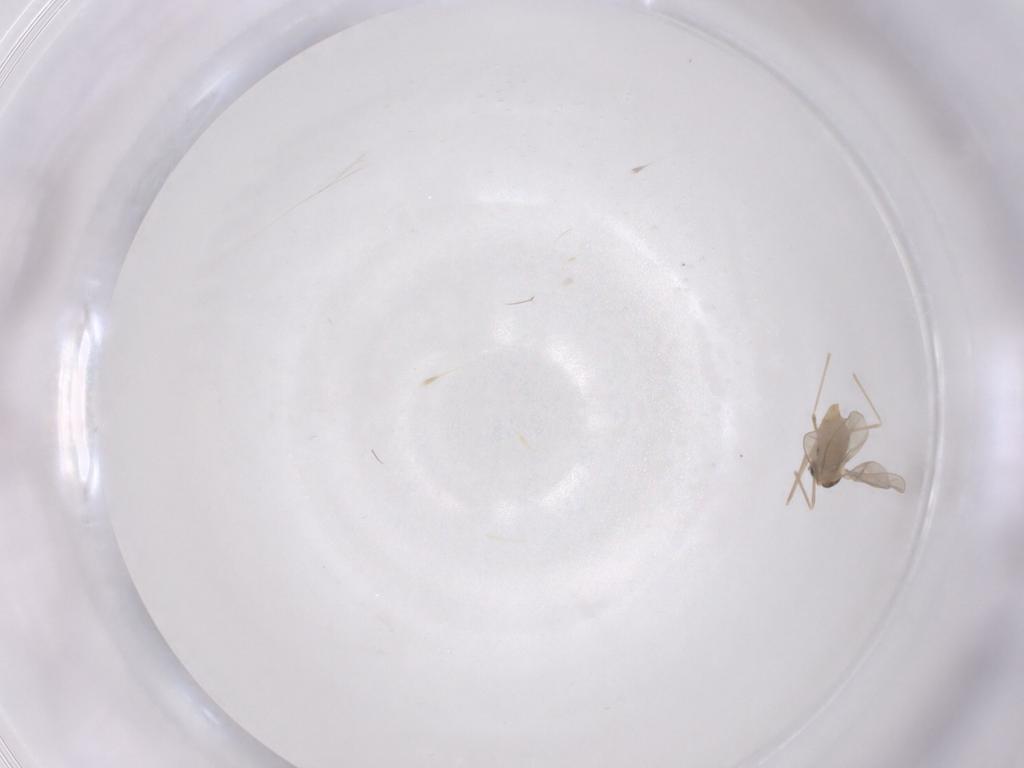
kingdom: Animalia
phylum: Arthropoda
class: Insecta
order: Diptera
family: Cecidomyiidae
